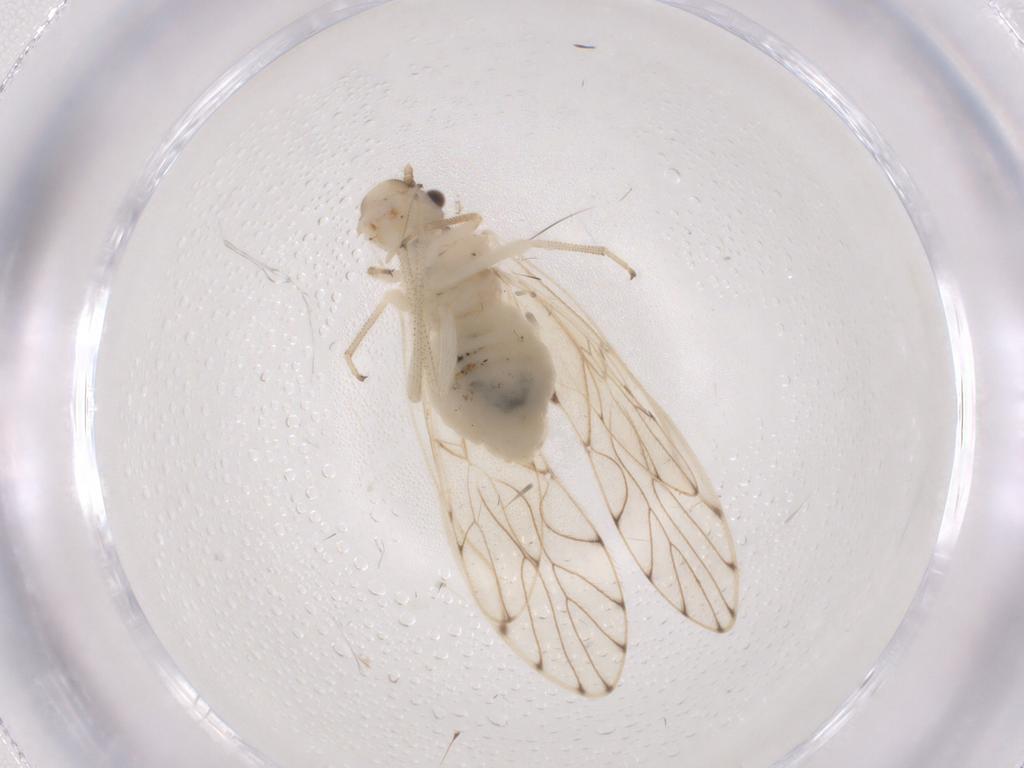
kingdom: Animalia
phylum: Arthropoda
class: Insecta
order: Psocodea
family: Philotarsidae
